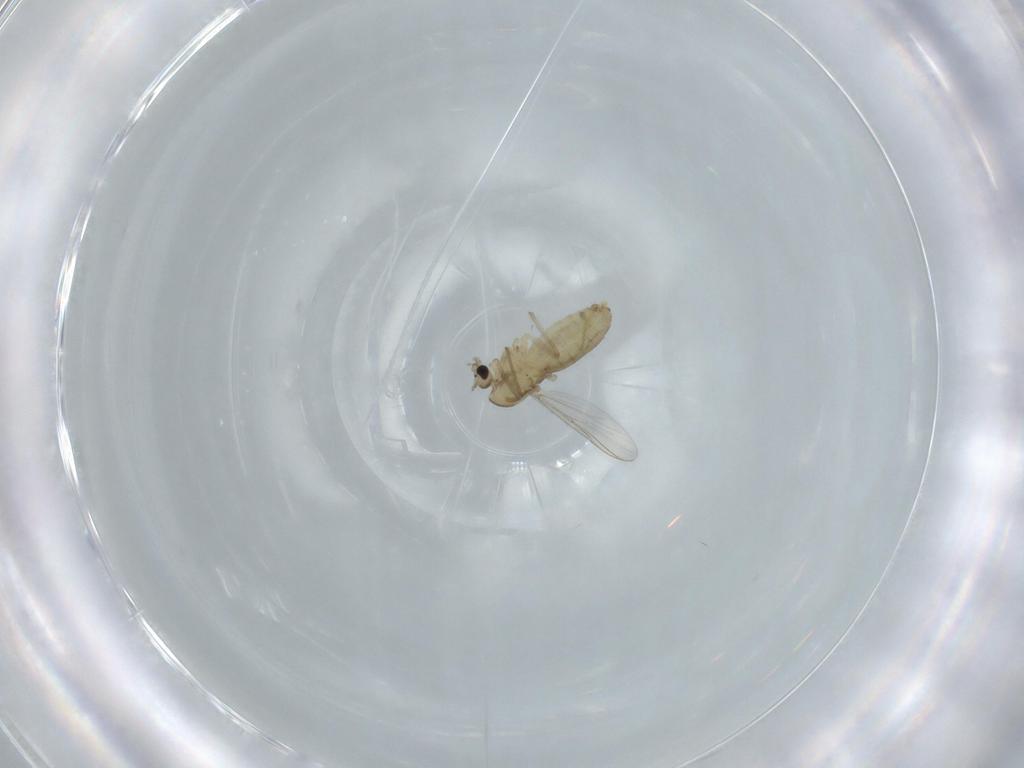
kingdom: Animalia
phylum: Arthropoda
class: Insecta
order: Diptera
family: Chironomidae
